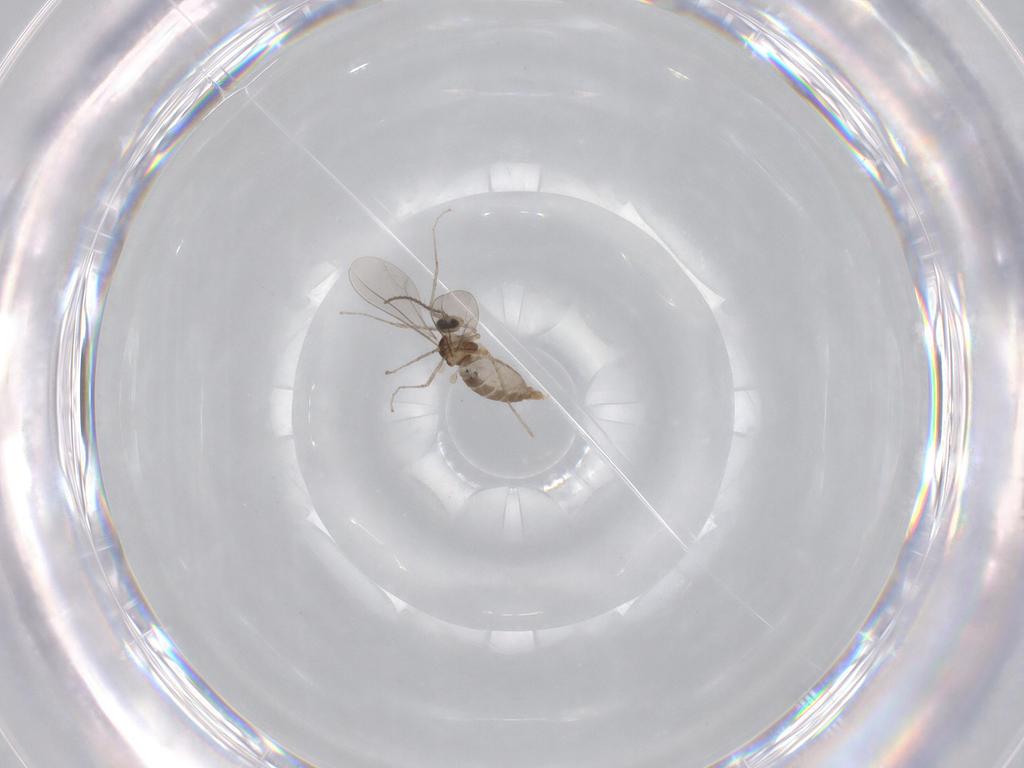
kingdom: Animalia
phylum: Arthropoda
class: Insecta
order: Diptera
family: Ceratopogonidae
